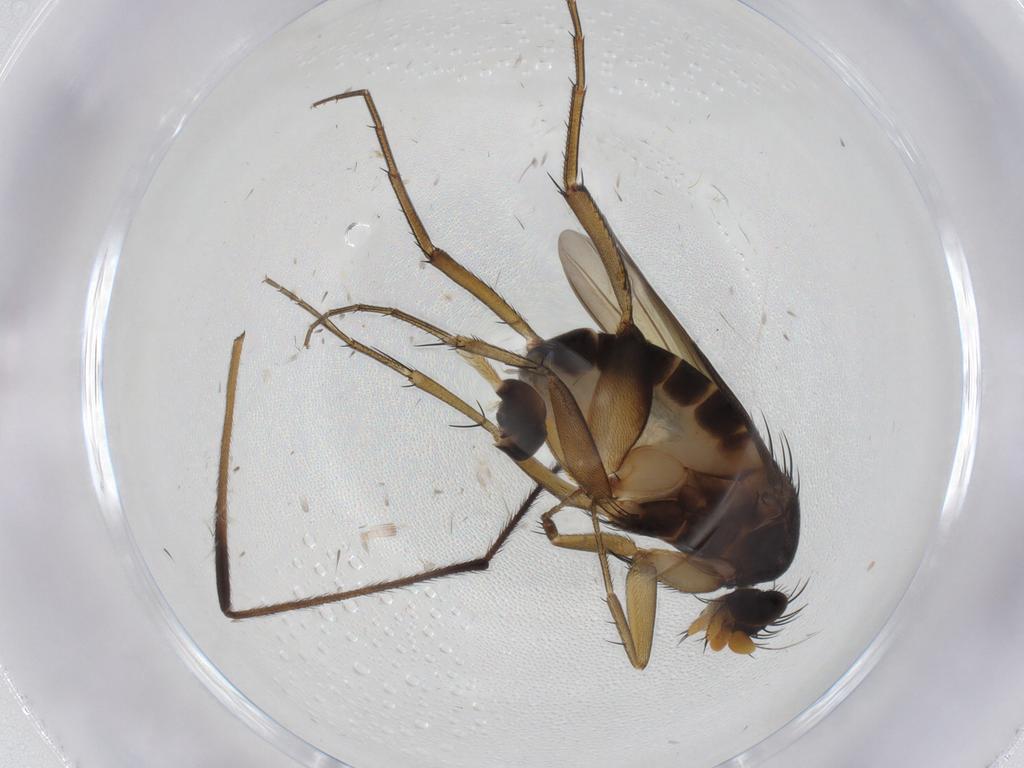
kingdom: Animalia
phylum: Arthropoda
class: Insecta
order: Diptera
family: Phoridae
